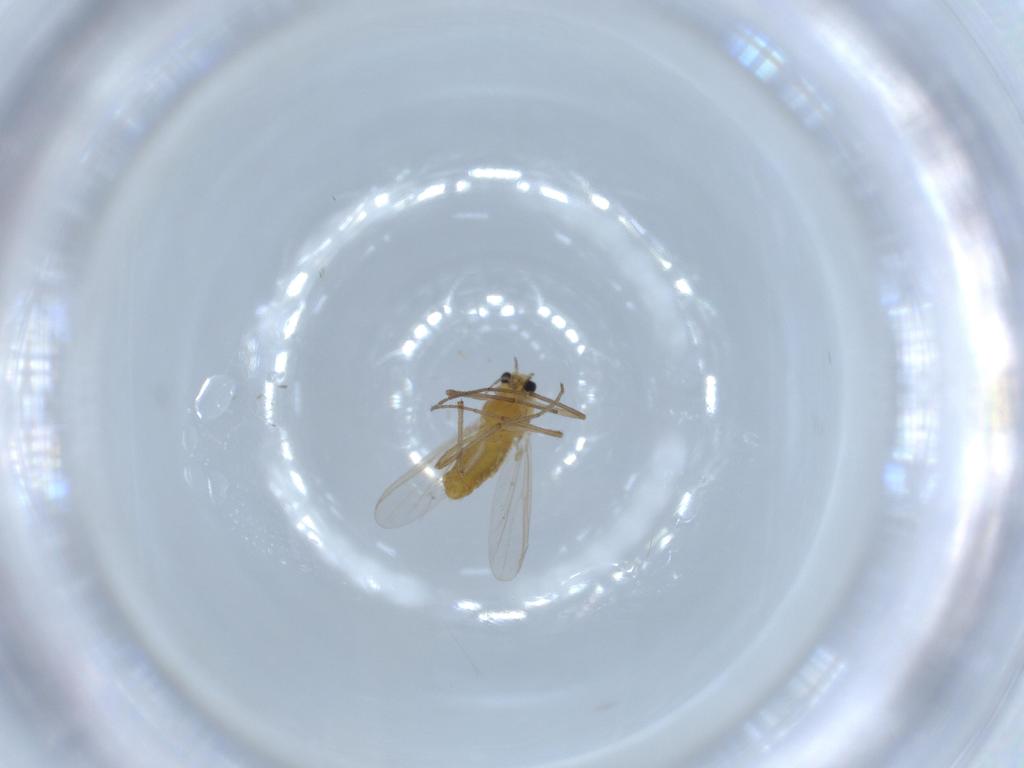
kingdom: Animalia
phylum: Arthropoda
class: Insecta
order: Diptera
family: Chironomidae
